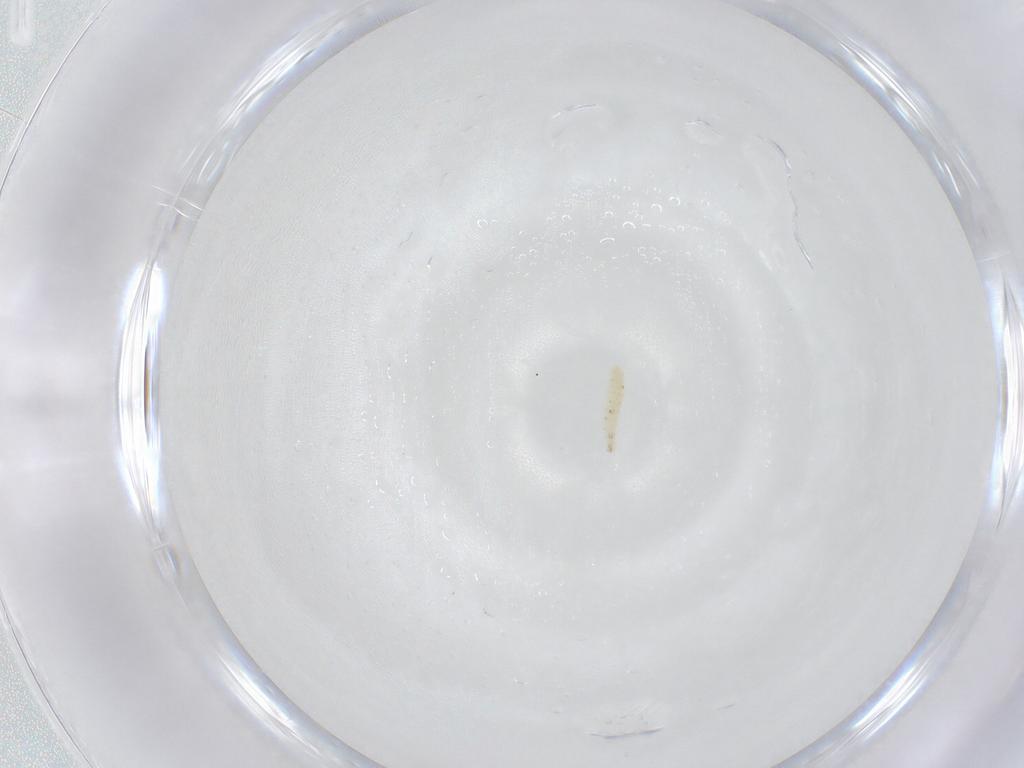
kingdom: Animalia
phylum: Arthropoda
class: Insecta
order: Diptera
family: Sarcophagidae
